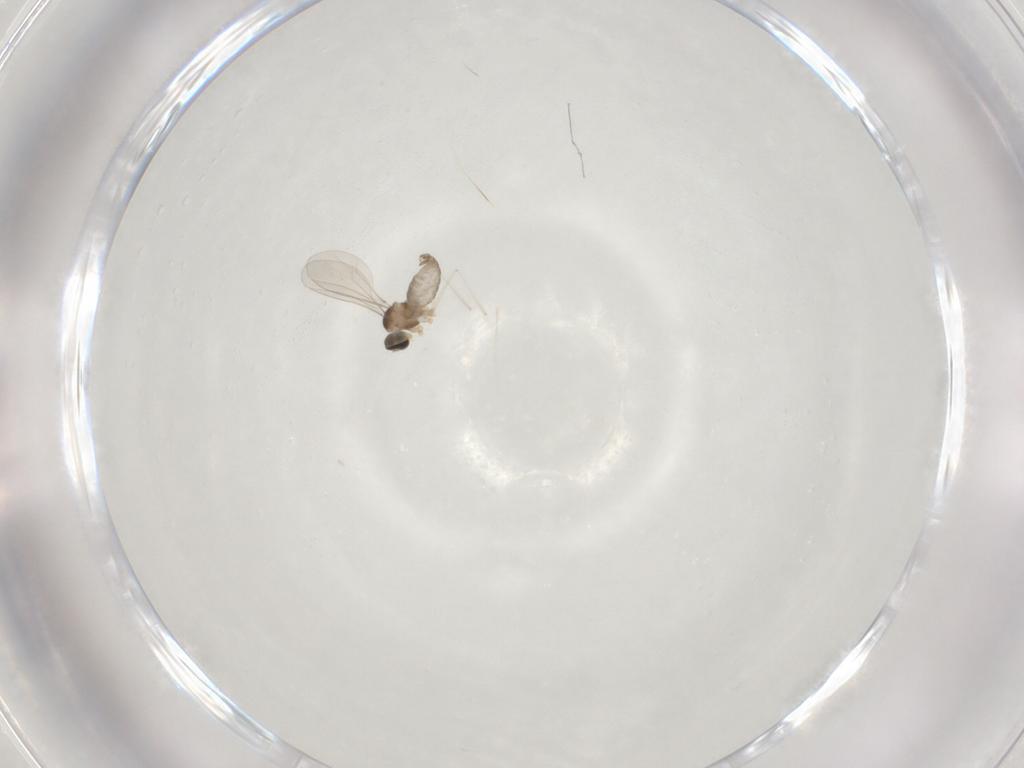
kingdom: Animalia
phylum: Arthropoda
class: Insecta
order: Diptera
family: Cecidomyiidae
